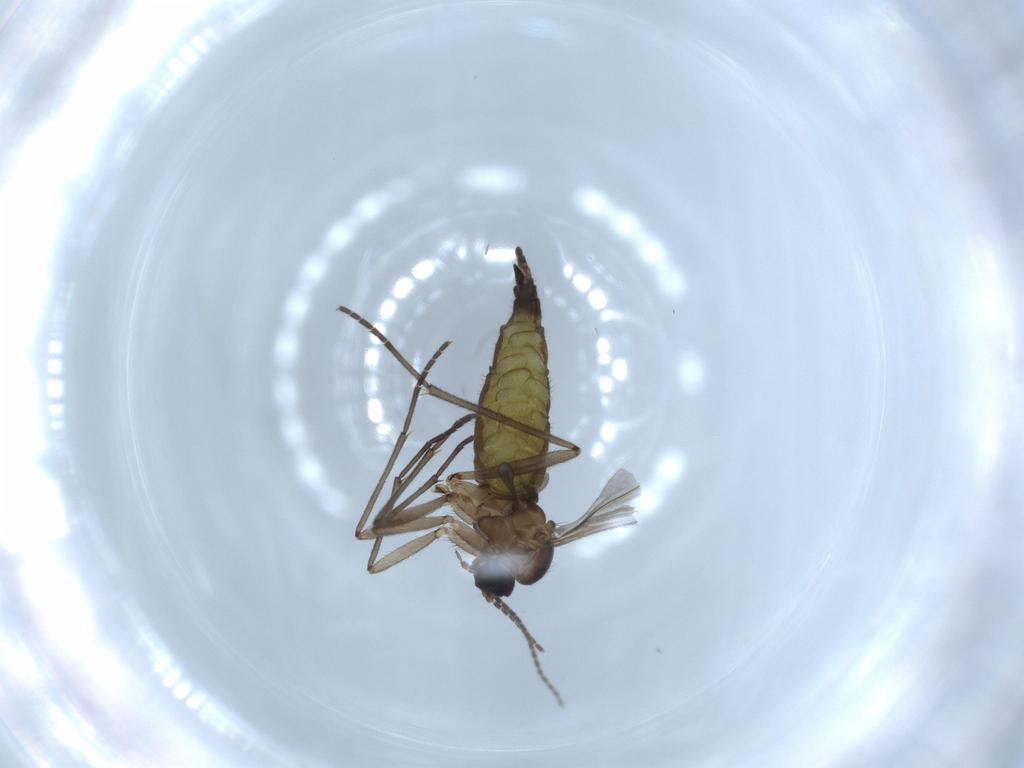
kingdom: Animalia
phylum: Arthropoda
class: Insecta
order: Diptera
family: Sciaridae
